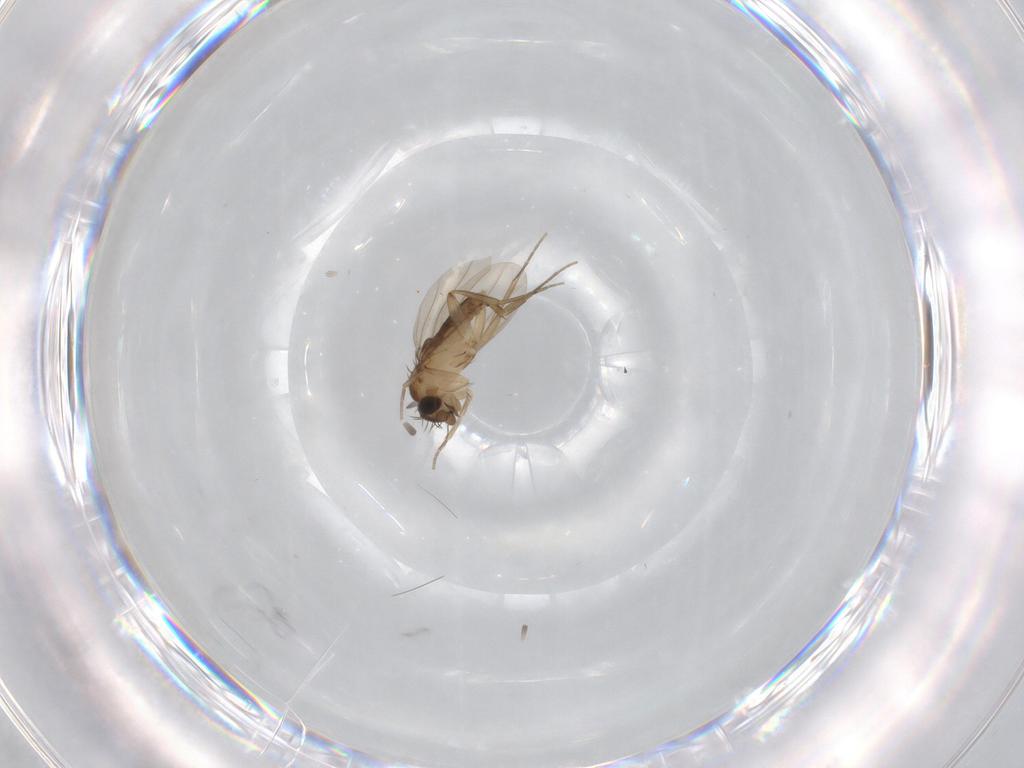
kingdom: Animalia
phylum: Arthropoda
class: Insecta
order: Diptera
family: Phoridae
